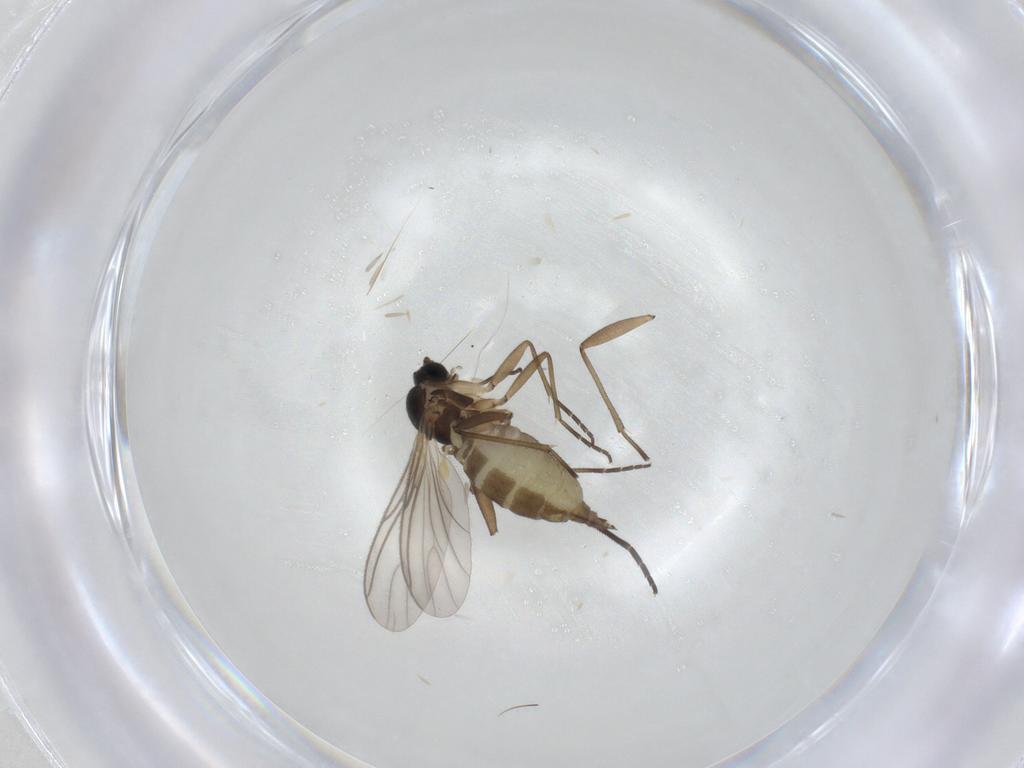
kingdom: Animalia
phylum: Arthropoda
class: Insecta
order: Diptera
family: Sciaridae
